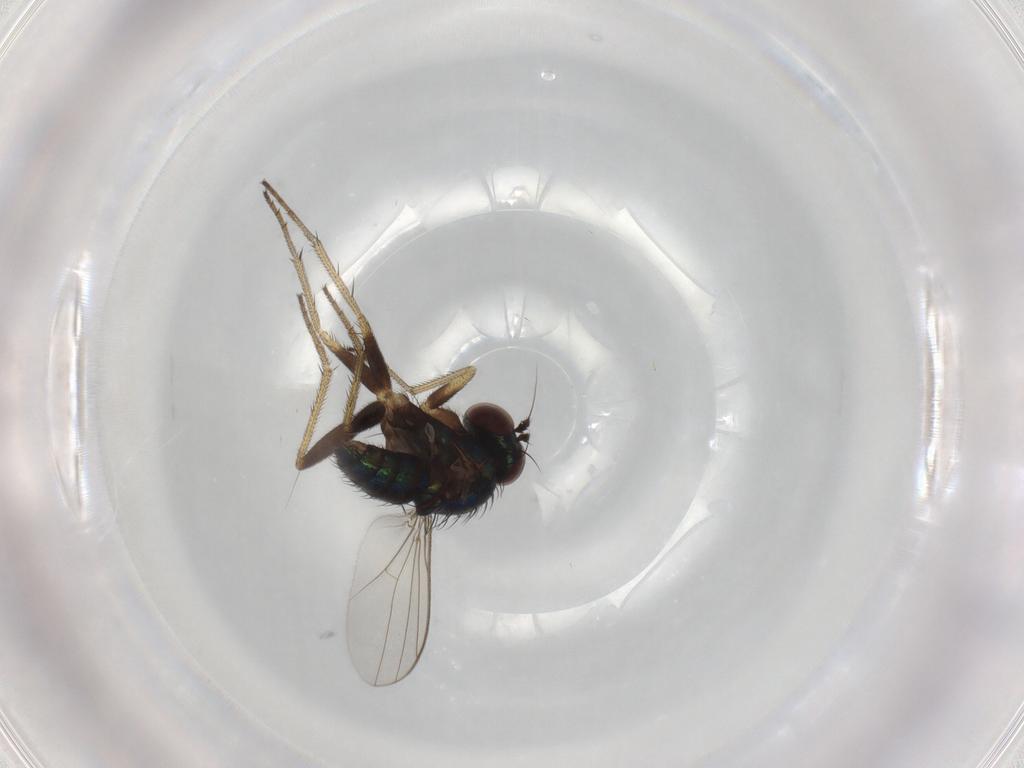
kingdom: Animalia
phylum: Arthropoda
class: Insecta
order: Diptera
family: Dolichopodidae
